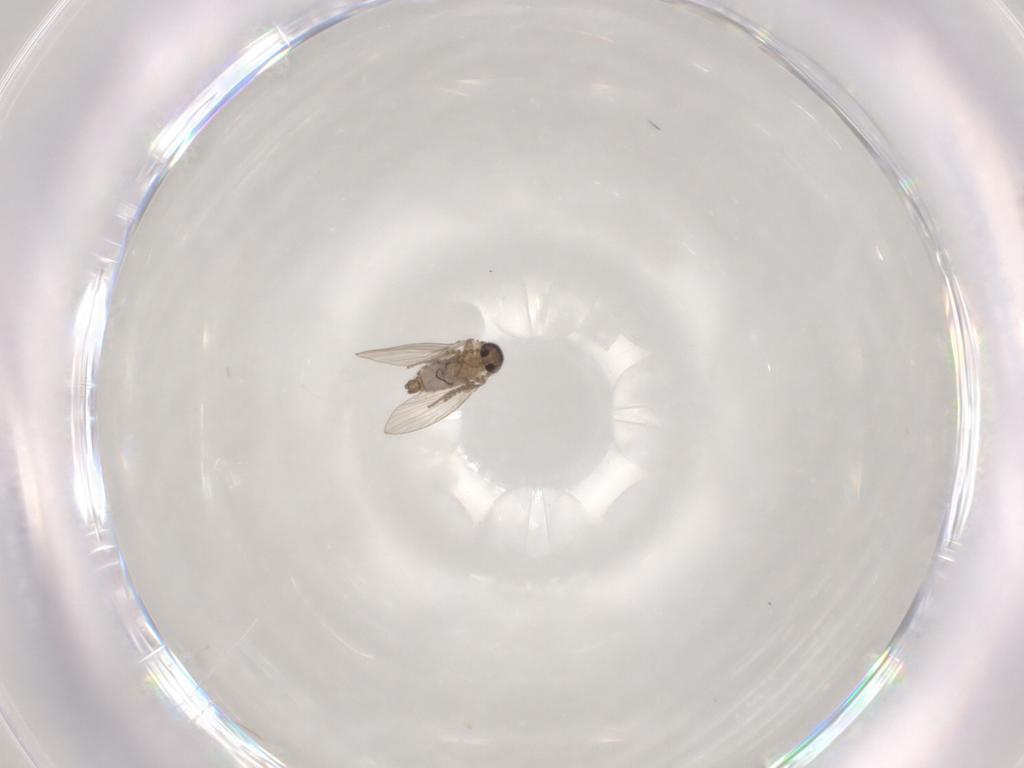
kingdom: Animalia
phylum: Arthropoda
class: Insecta
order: Diptera
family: Psychodidae
